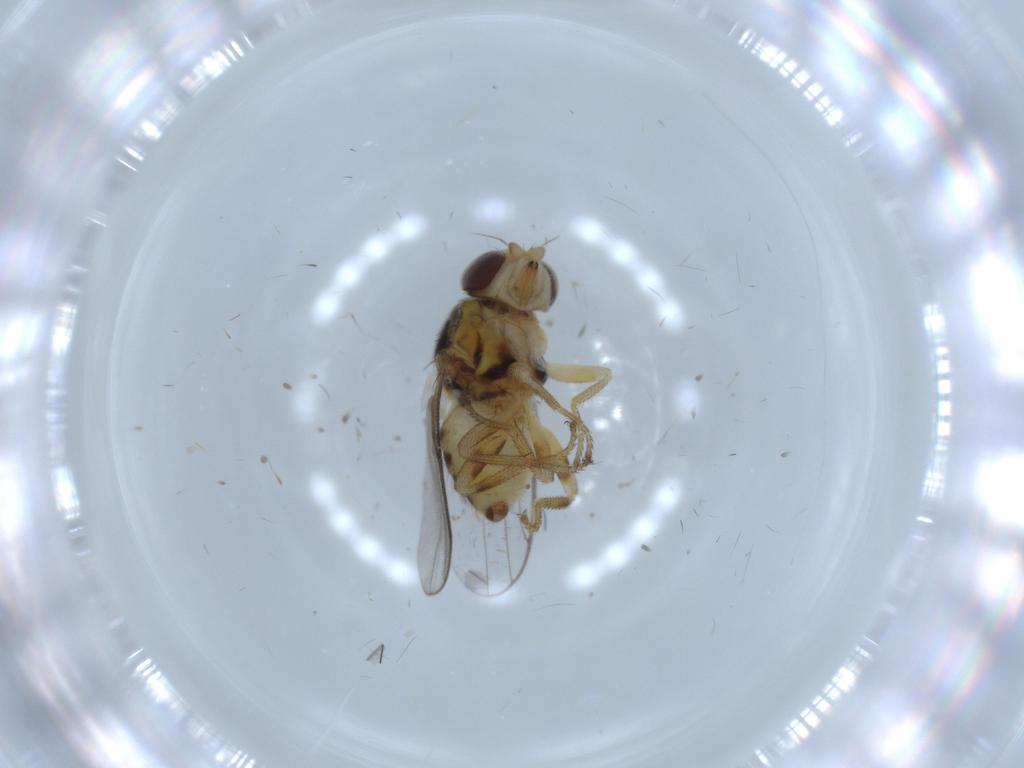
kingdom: Animalia
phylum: Arthropoda
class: Insecta
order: Diptera
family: Chloropidae
